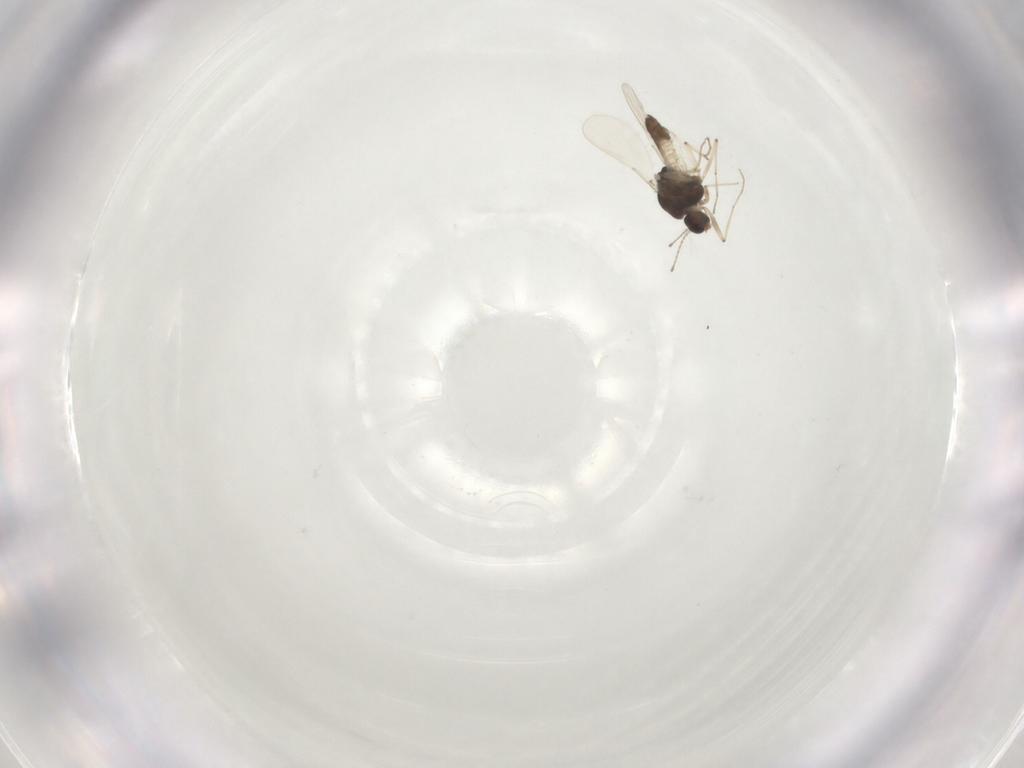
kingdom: Animalia
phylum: Arthropoda
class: Insecta
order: Diptera
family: Chironomidae
